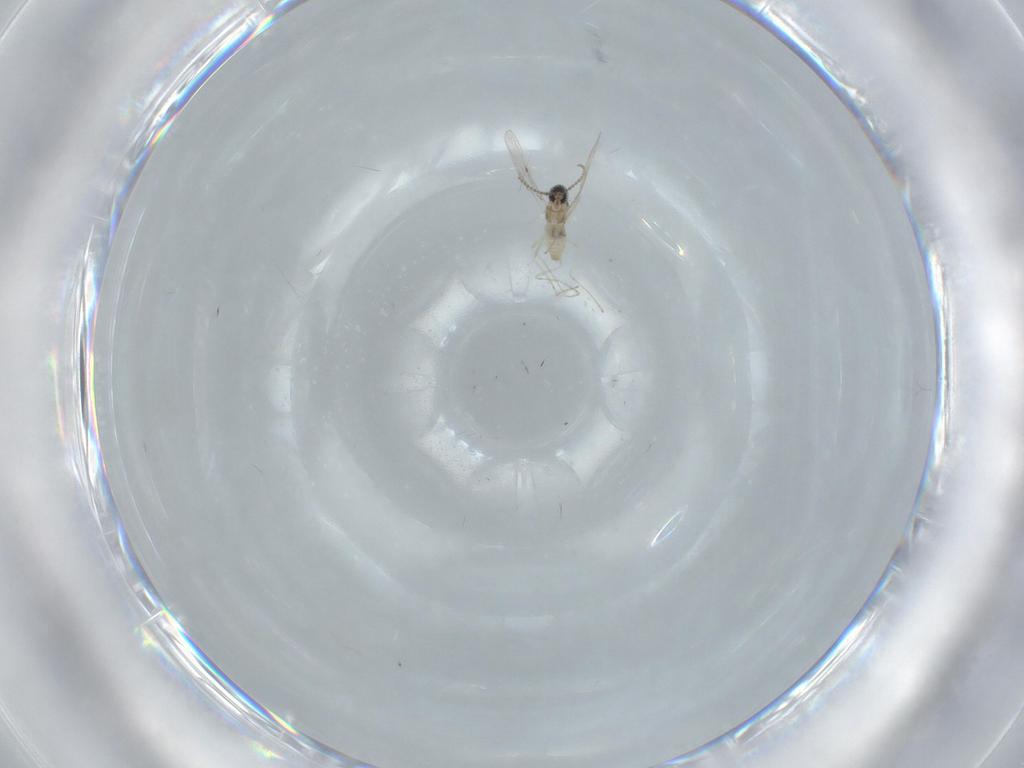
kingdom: Animalia
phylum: Arthropoda
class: Insecta
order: Diptera
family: Cecidomyiidae
